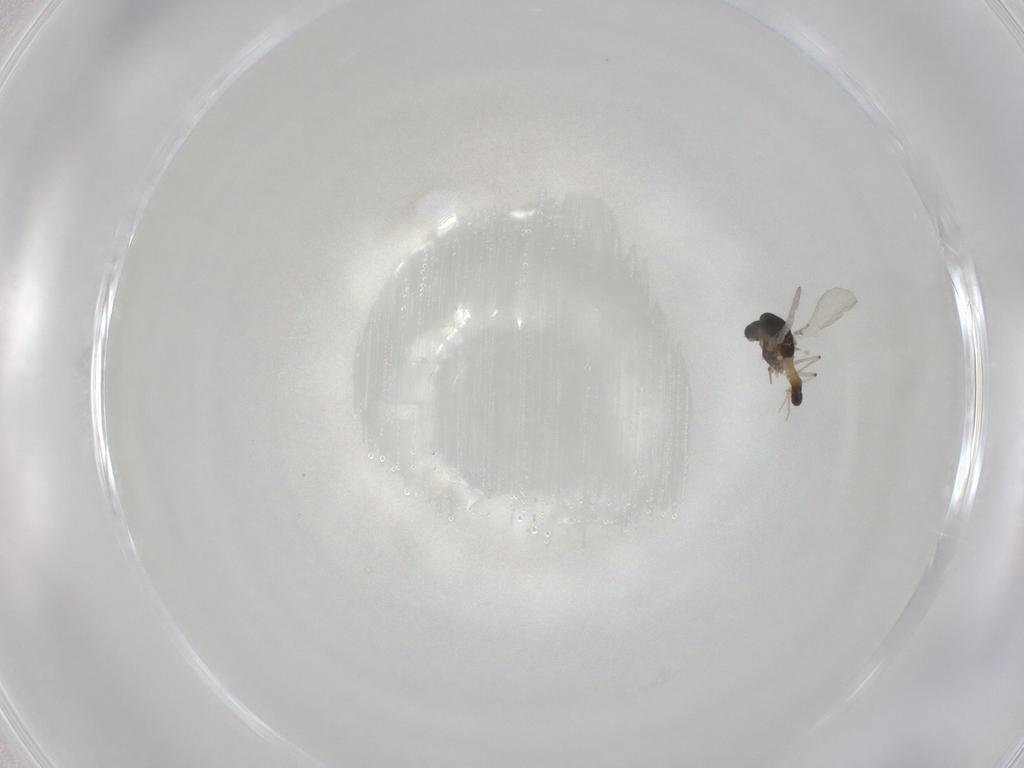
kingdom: Animalia
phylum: Arthropoda
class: Insecta
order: Diptera
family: Chironomidae
